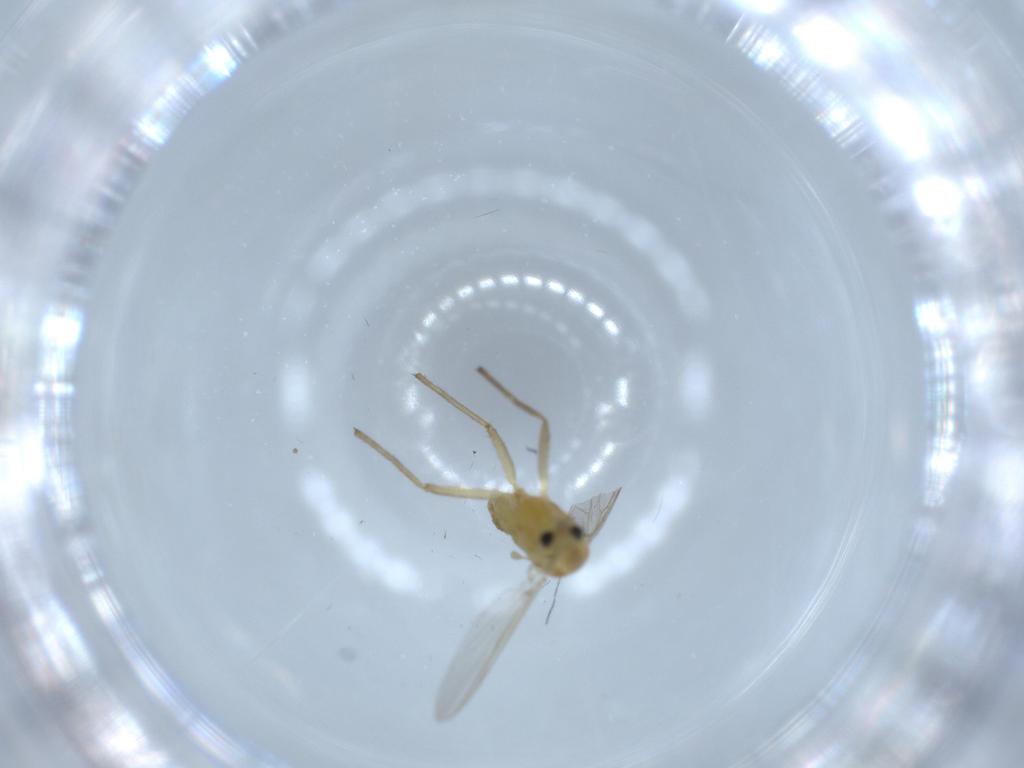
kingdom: Animalia
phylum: Arthropoda
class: Insecta
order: Diptera
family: Chironomidae
